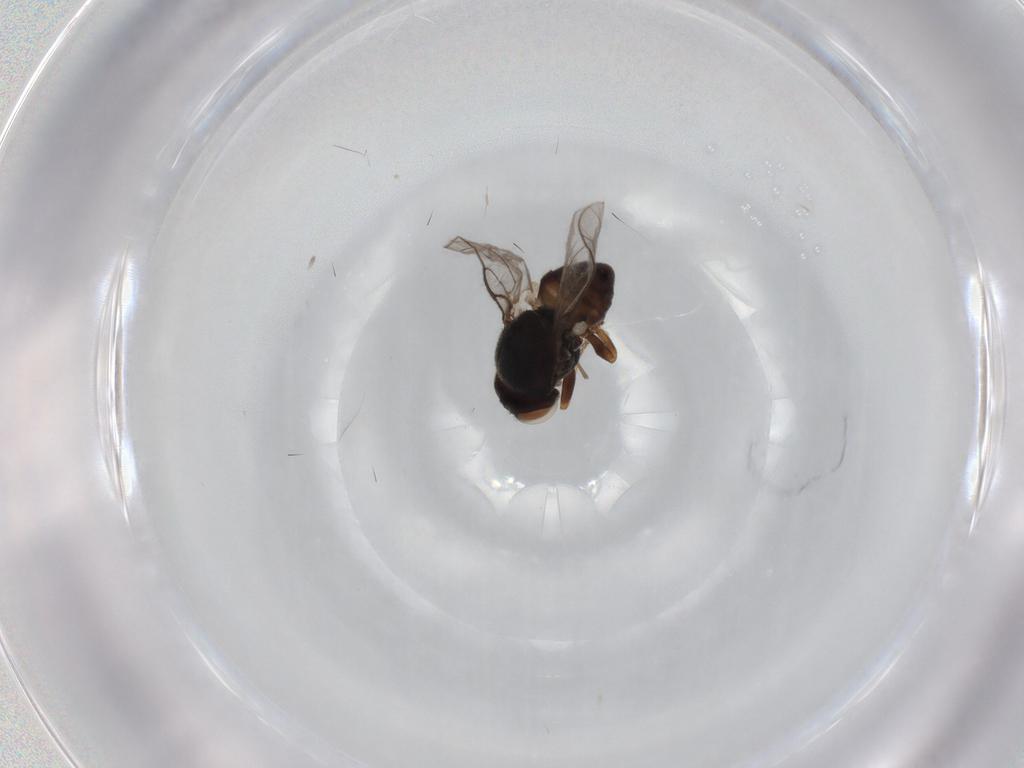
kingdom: Animalia
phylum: Arthropoda
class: Insecta
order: Diptera
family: Chloropidae
